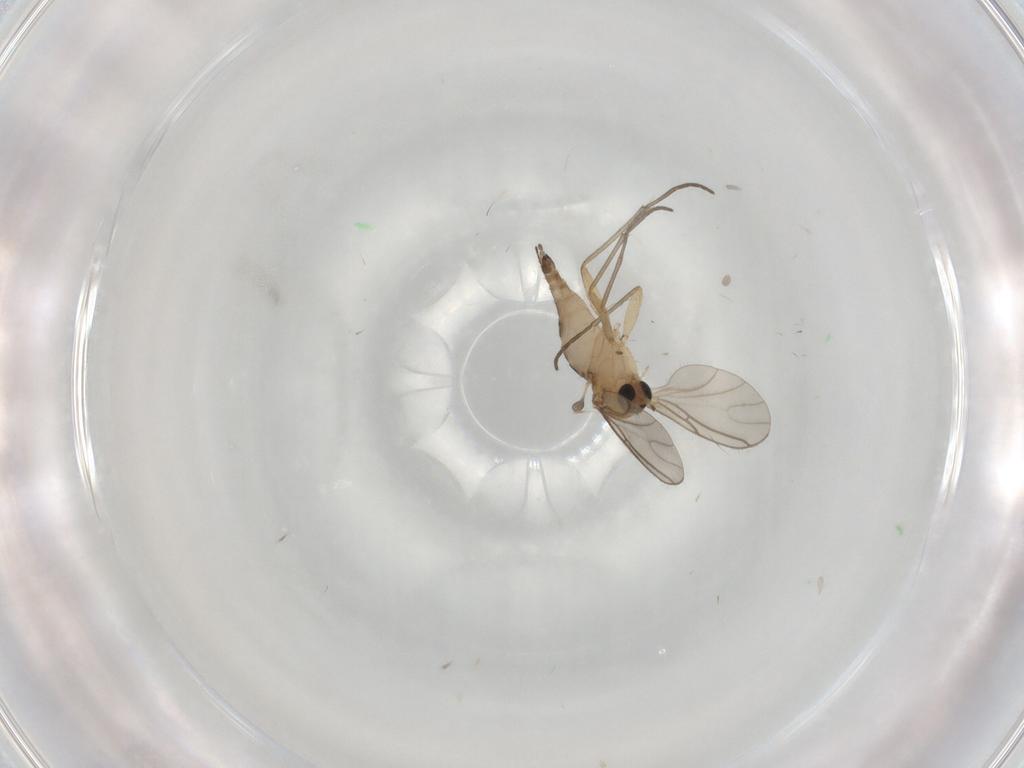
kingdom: Animalia
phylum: Arthropoda
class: Insecta
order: Diptera
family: Sciaridae
